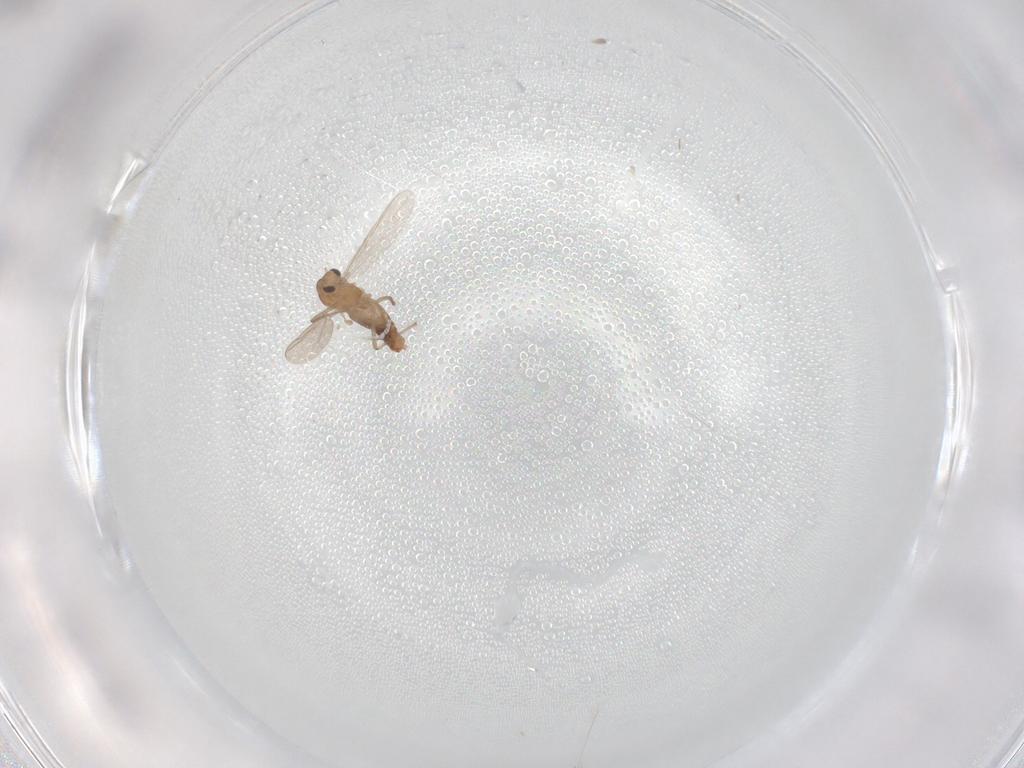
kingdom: Animalia
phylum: Arthropoda
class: Insecta
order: Diptera
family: Chironomidae
